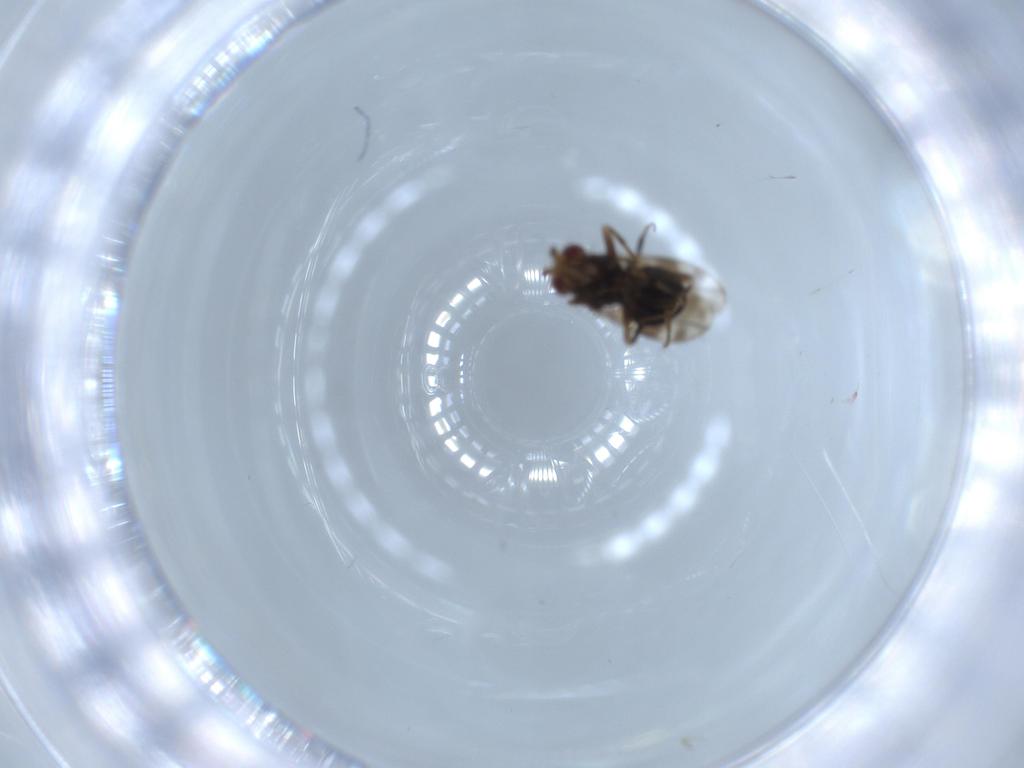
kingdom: Animalia
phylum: Arthropoda
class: Insecta
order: Diptera
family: Sphaeroceridae
